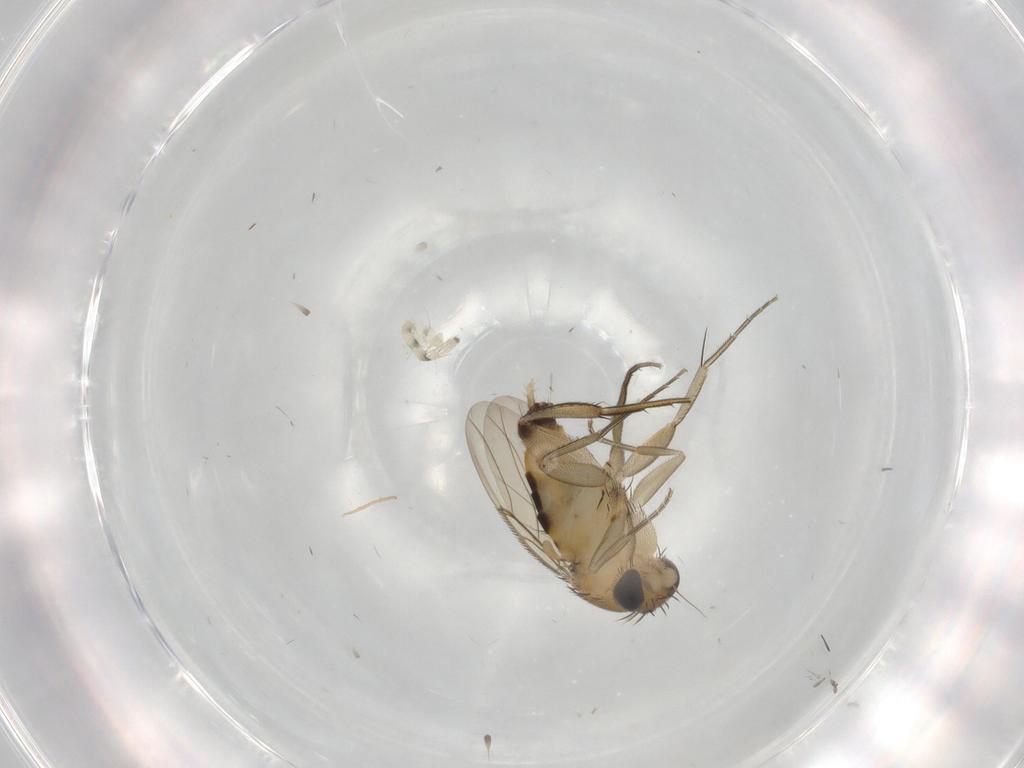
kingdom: Animalia
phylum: Arthropoda
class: Insecta
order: Diptera
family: Phoridae
